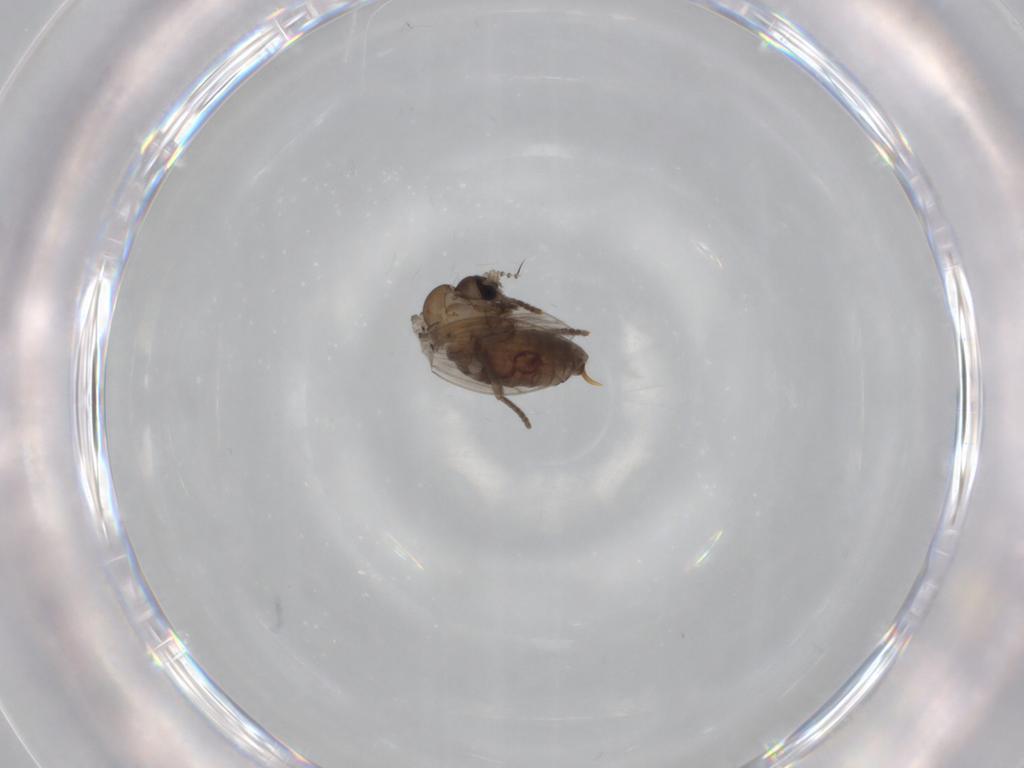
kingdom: Animalia
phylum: Arthropoda
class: Insecta
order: Diptera
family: Psychodidae
